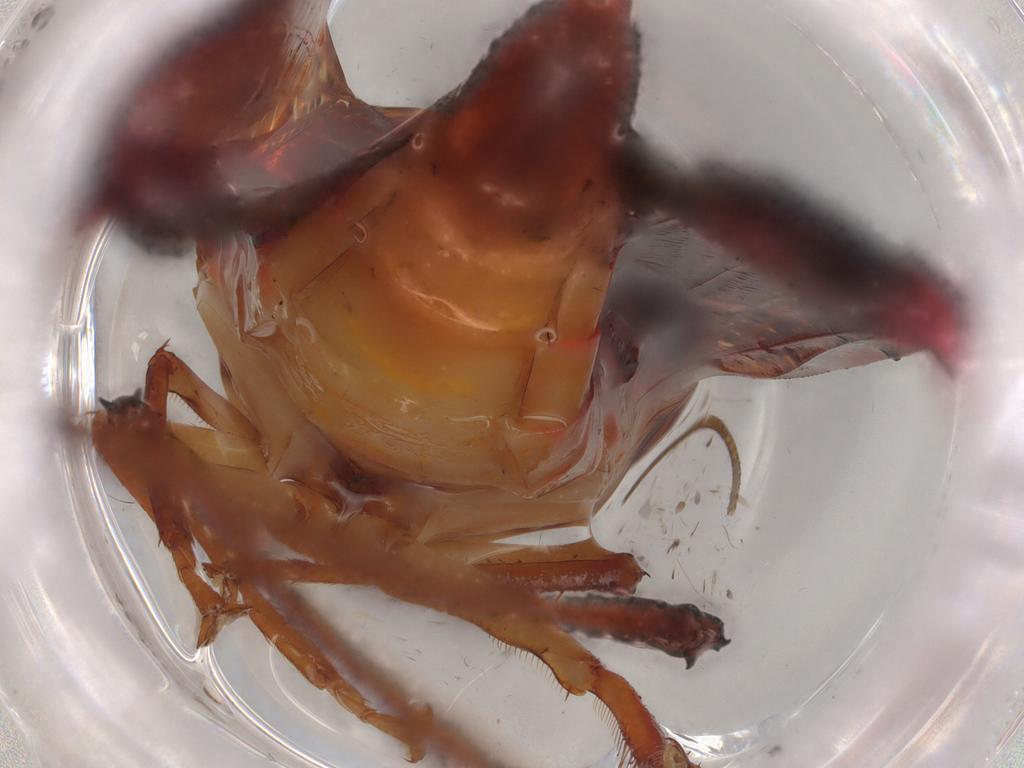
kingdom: Animalia
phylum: Arthropoda
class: Insecta
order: Hemiptera
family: Cicadellidae
